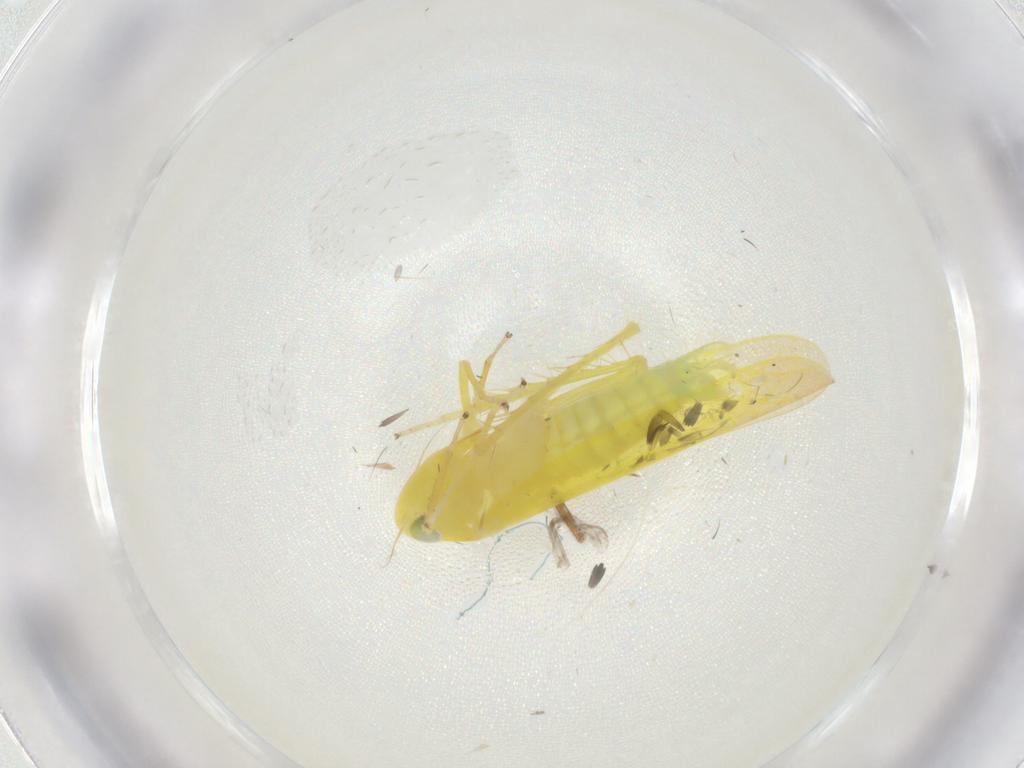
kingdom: Animalia
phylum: Arthropoda
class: Insecta
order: Hemiptera
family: Cicadellidae
